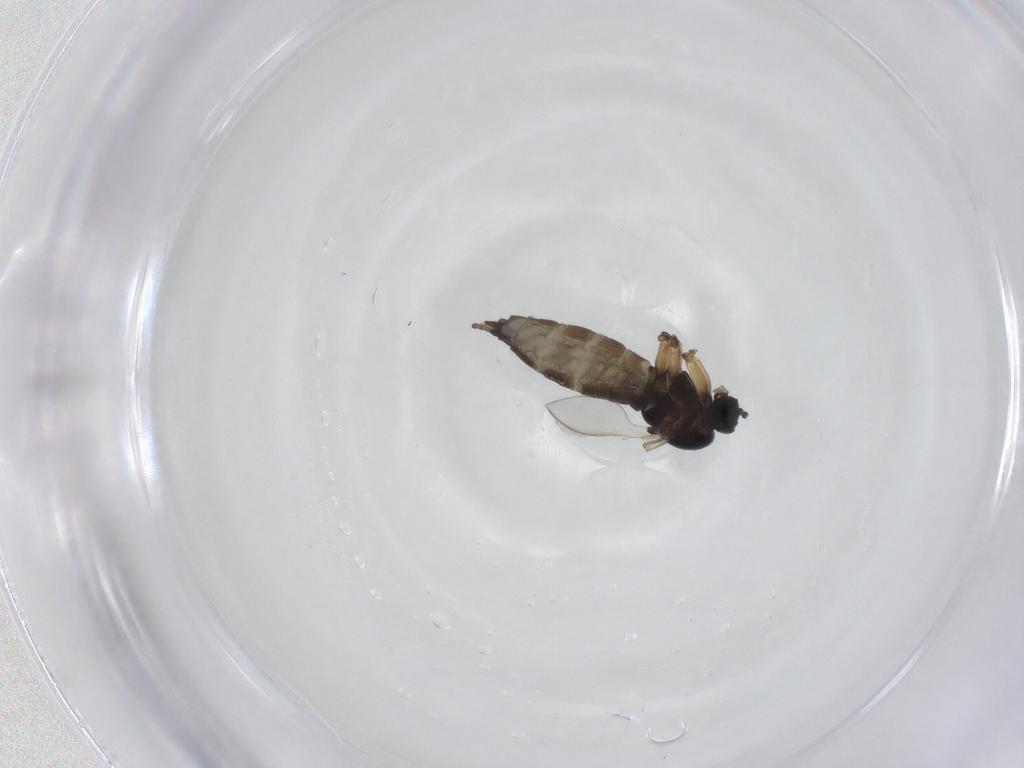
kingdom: Animalia
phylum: Arthropoda
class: Insecta
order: Diptera
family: Sciaridae
